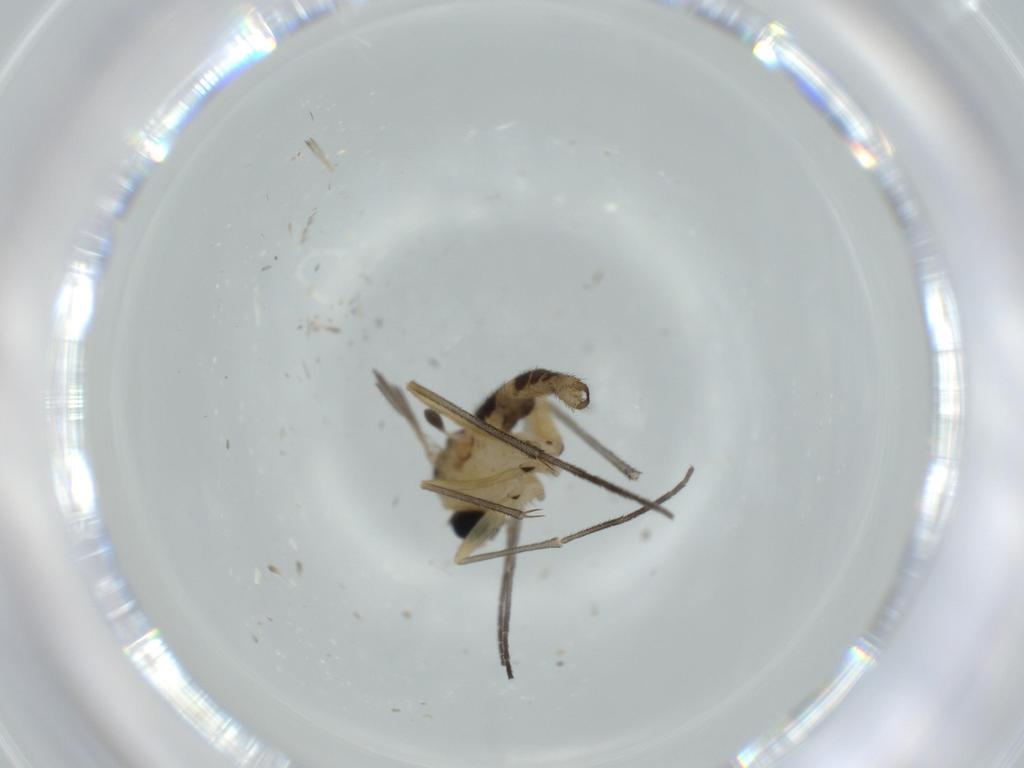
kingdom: Animalia
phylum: Arthropoda
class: Insecta
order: Diptera
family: Sciaridae
